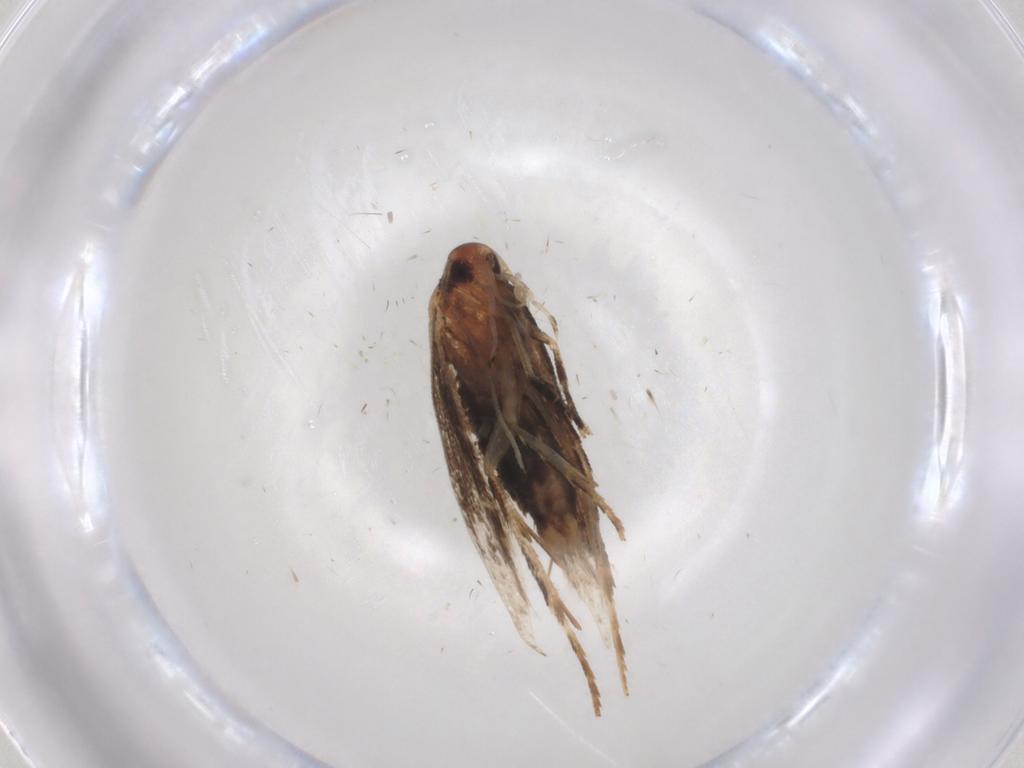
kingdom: Animalia
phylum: Arthropoda
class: Insecta
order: Lepidoptera
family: Cosmopterigidae
